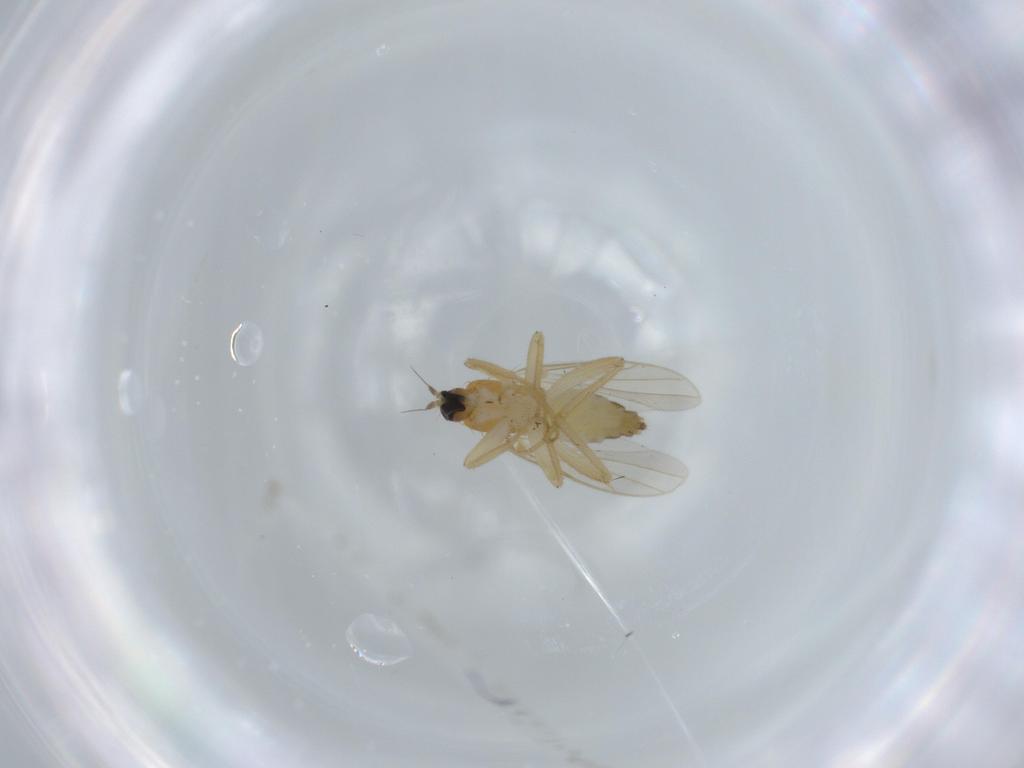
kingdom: Animalia
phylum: Arthropoda
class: Insecta
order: Diptera
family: Hybotidae
